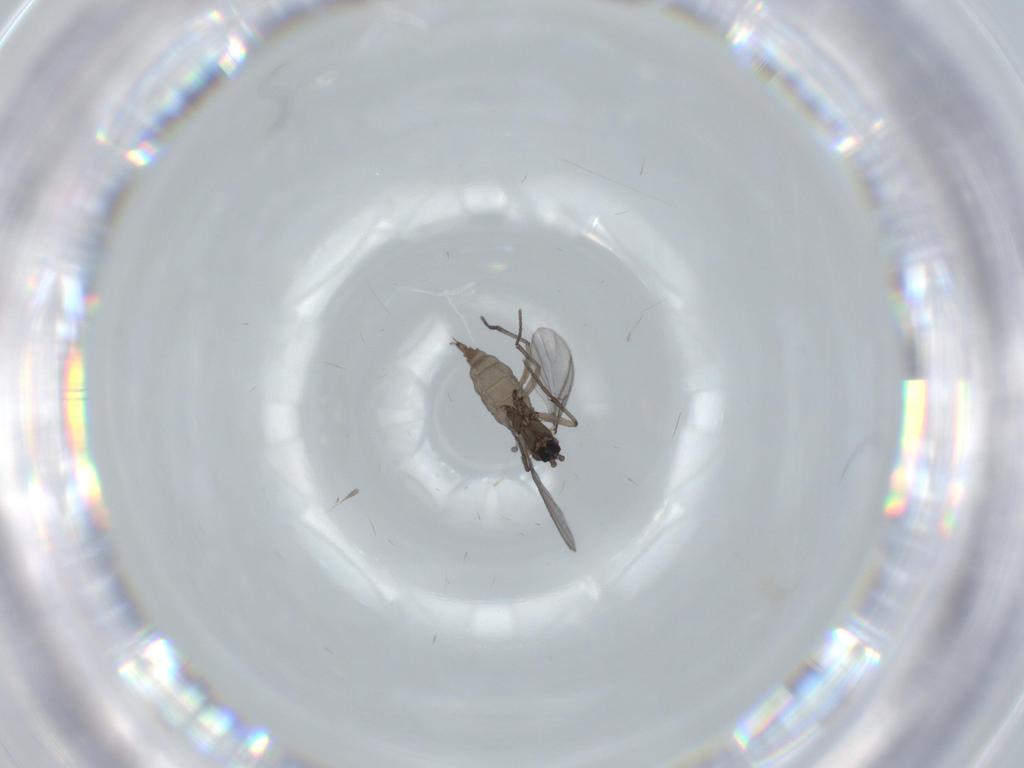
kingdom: Animalia
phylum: Arthropoda
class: Insecta
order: Diptera
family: Sciaridae
